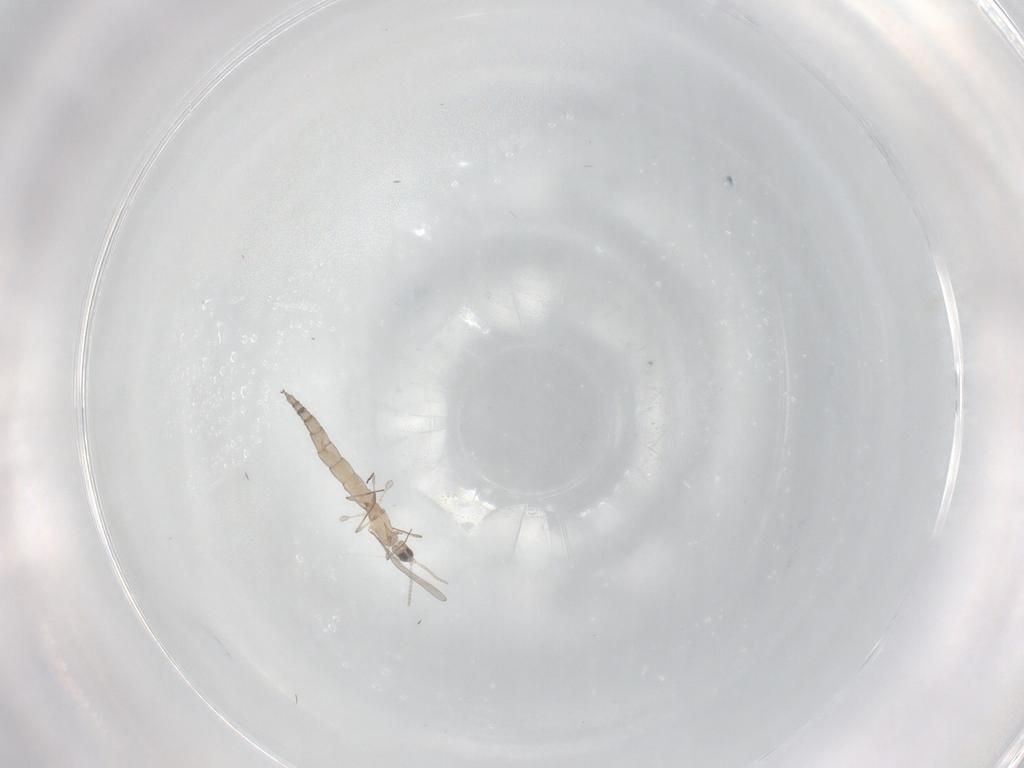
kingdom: Animalia
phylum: Arthropoda
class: Insecta
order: Diptera
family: Cecidomyiidae
